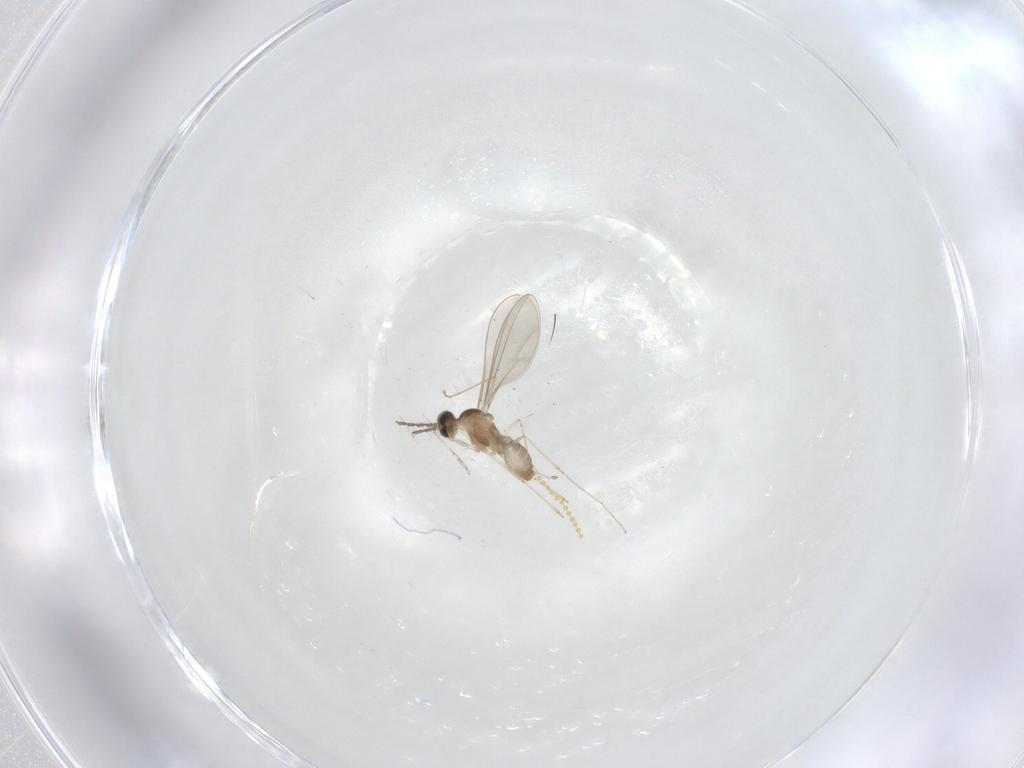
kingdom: Animalia
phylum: Arthropoda
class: Insecta
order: Diptera
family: Cecidomyiidae
